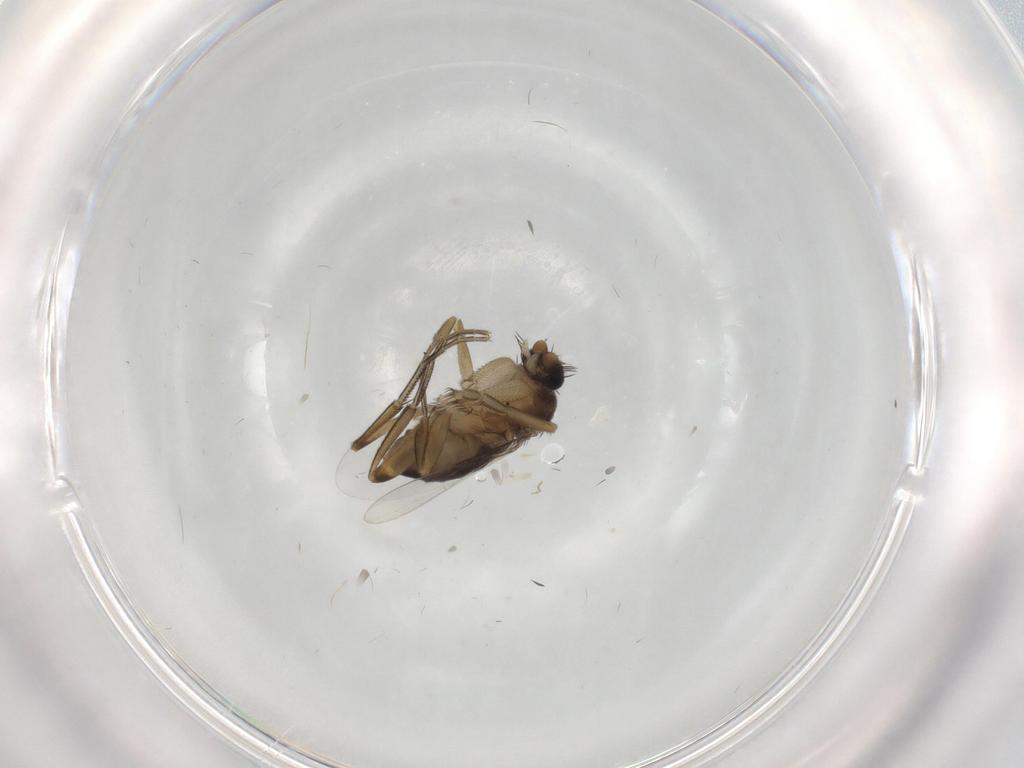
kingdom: Animalia
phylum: Arthropoda
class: Insecta
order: Diptera
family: Phoridae
